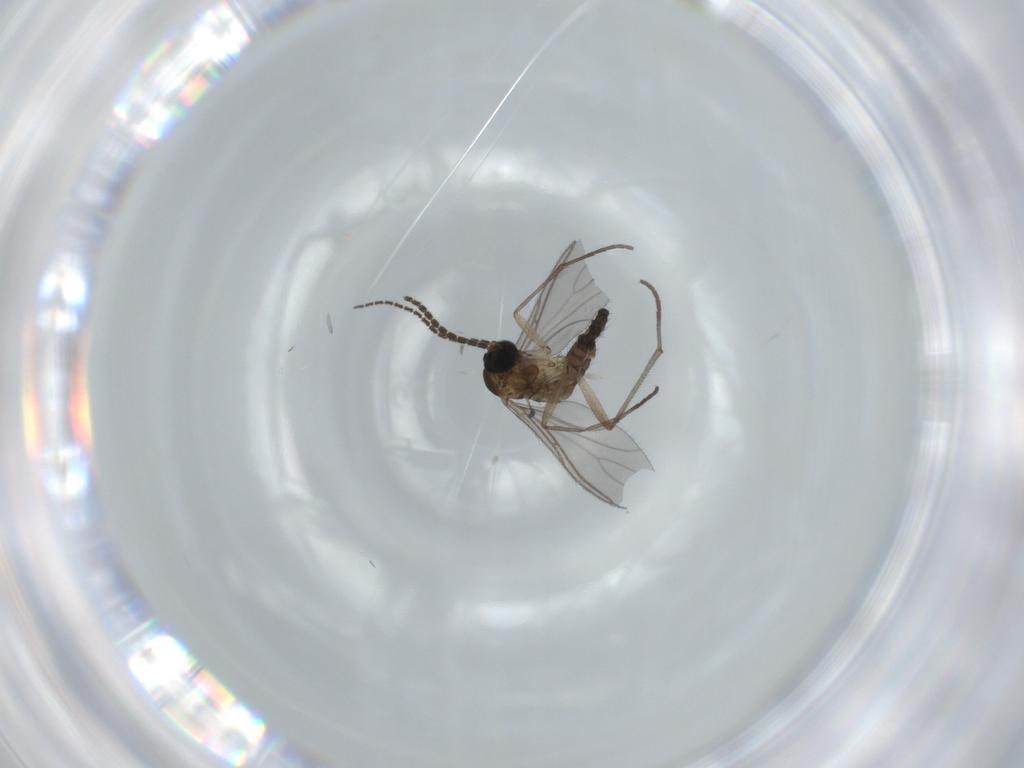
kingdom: Animalia
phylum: Arthropoda
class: Insecta
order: Diptera
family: Sciaridae
